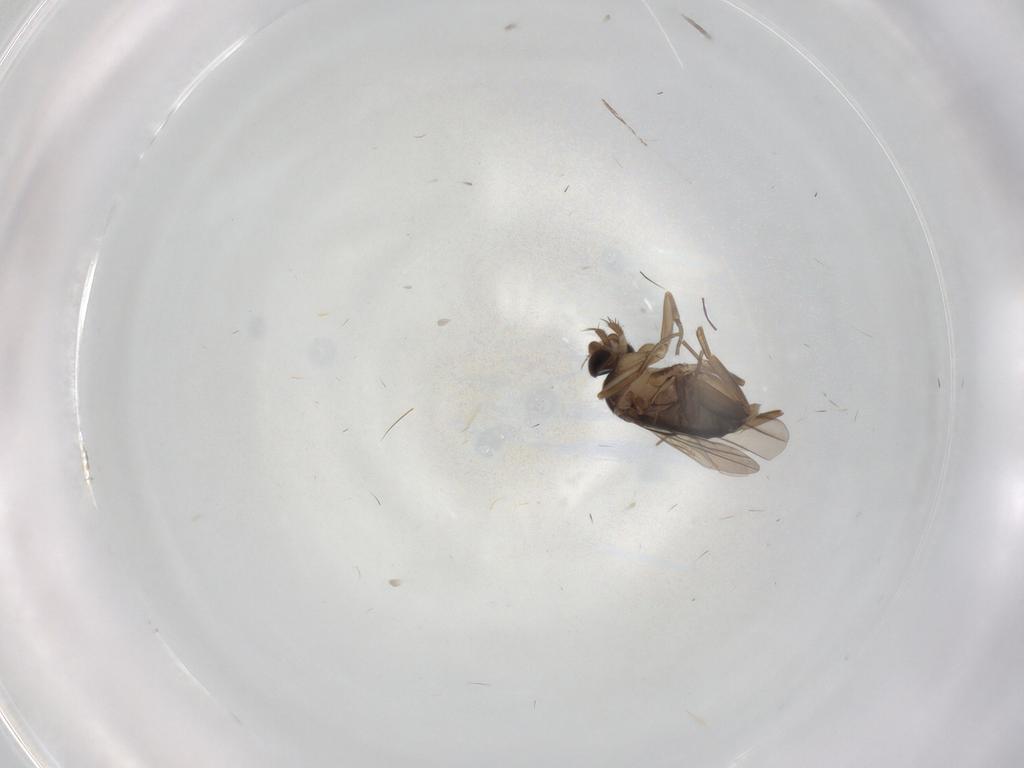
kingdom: Animalia
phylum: Arthropoda
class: Insecta
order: Diptera
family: Phoridae
